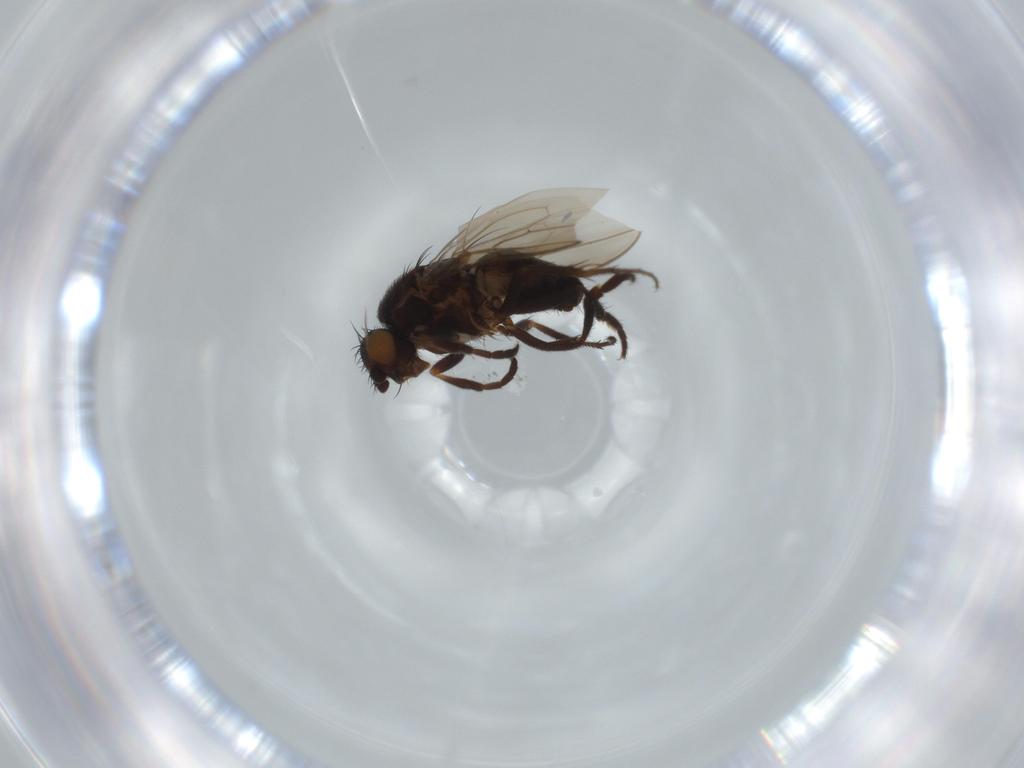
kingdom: Animalia
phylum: Arthropoda
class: Insecta
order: Diptera
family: Sphaeroceridae
